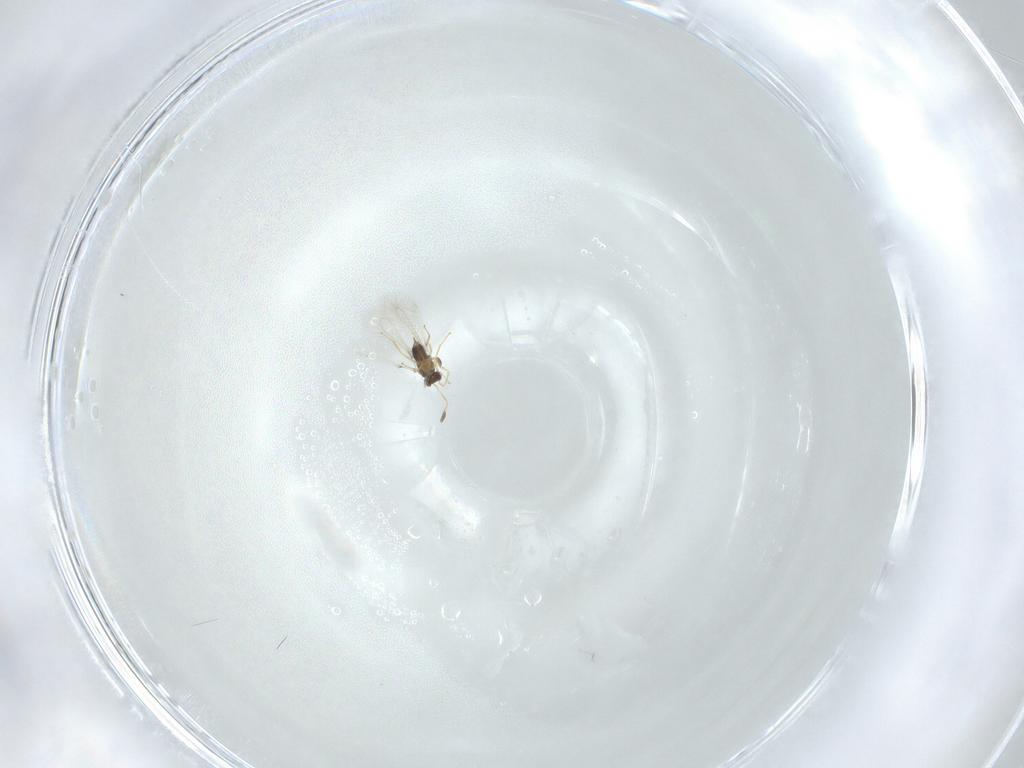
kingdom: Animalia
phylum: Arthropoda
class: Insecta
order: Hymenoptera
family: Mymaridae
